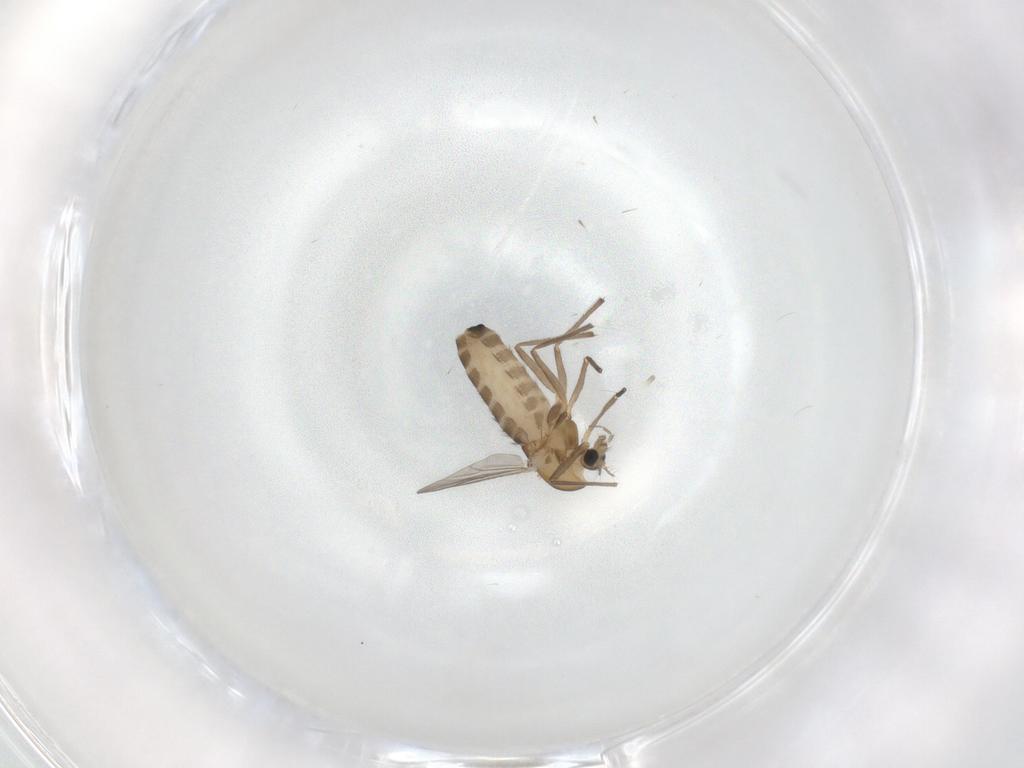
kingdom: Animalia
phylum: Arthropoda
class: Insecta
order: Diptera
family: Chironomidae
